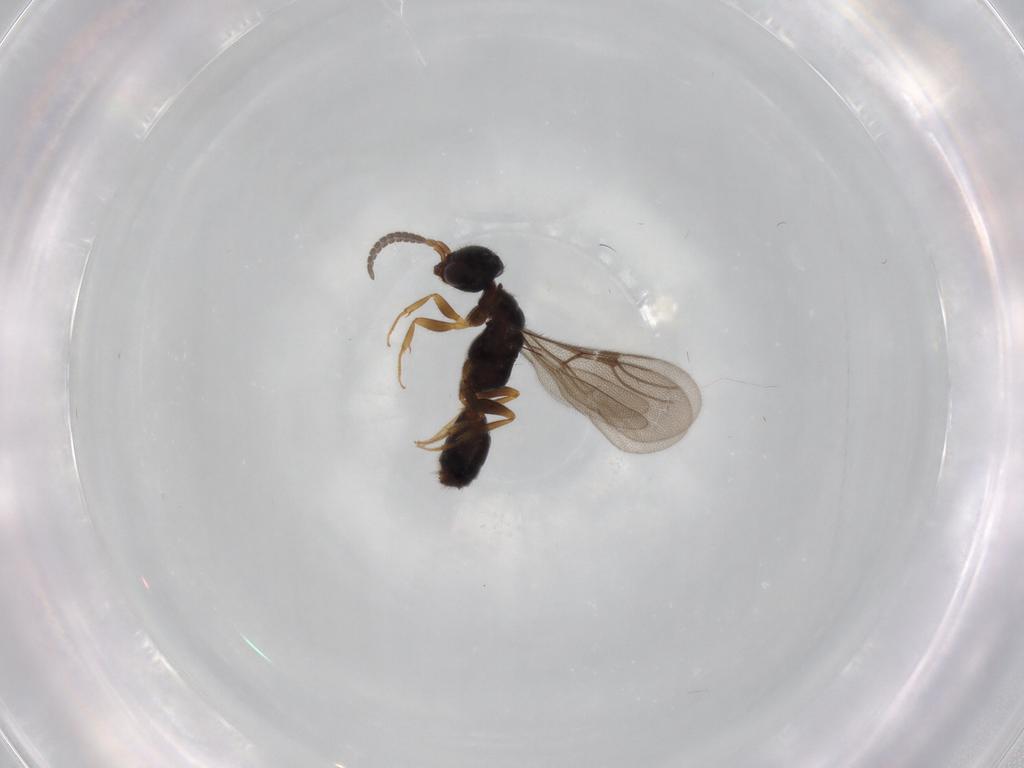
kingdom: Animalia
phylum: Arthropoda
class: Insecta
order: Hymenoptera
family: Bethylidae
